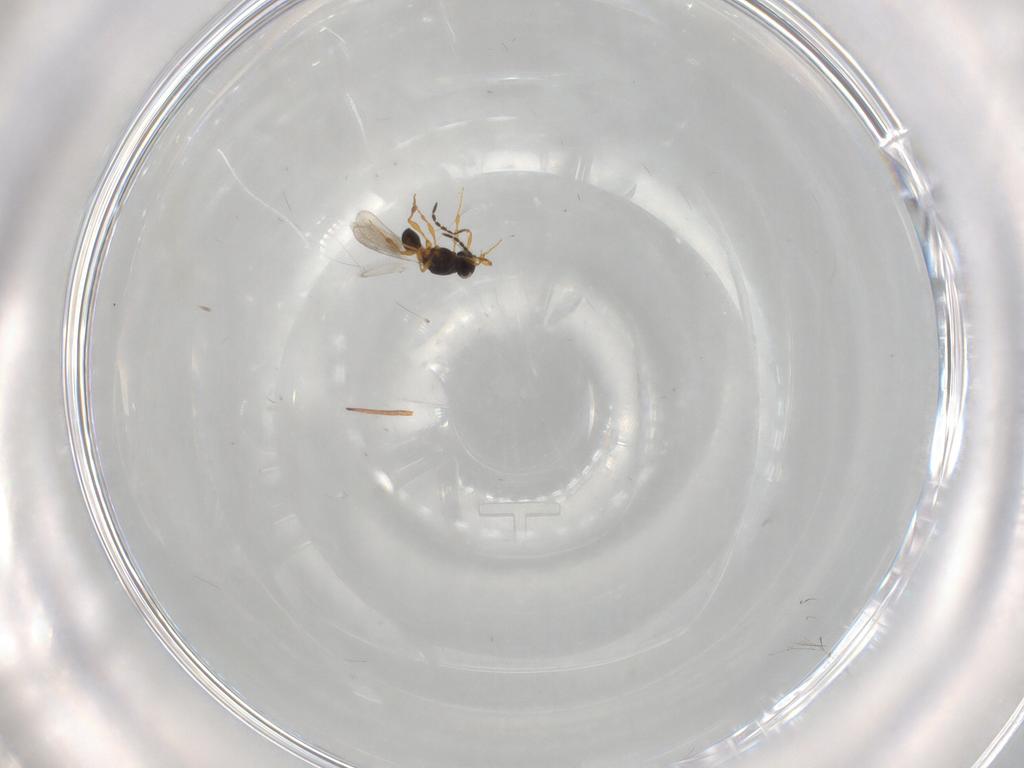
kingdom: Animalia
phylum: Arthropoda
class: Insecta
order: Hymenoptera
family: Platygastridae
